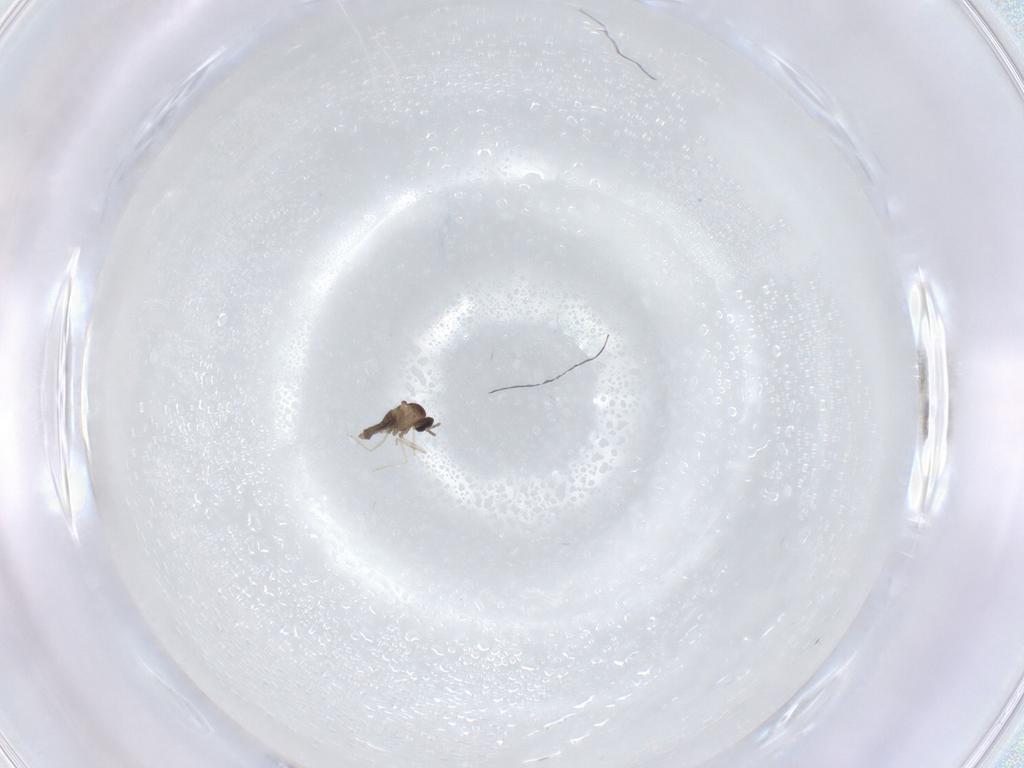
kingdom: Animalia
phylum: Arthropoda
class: Insecta
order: Diptera
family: Cecidomyiidae
